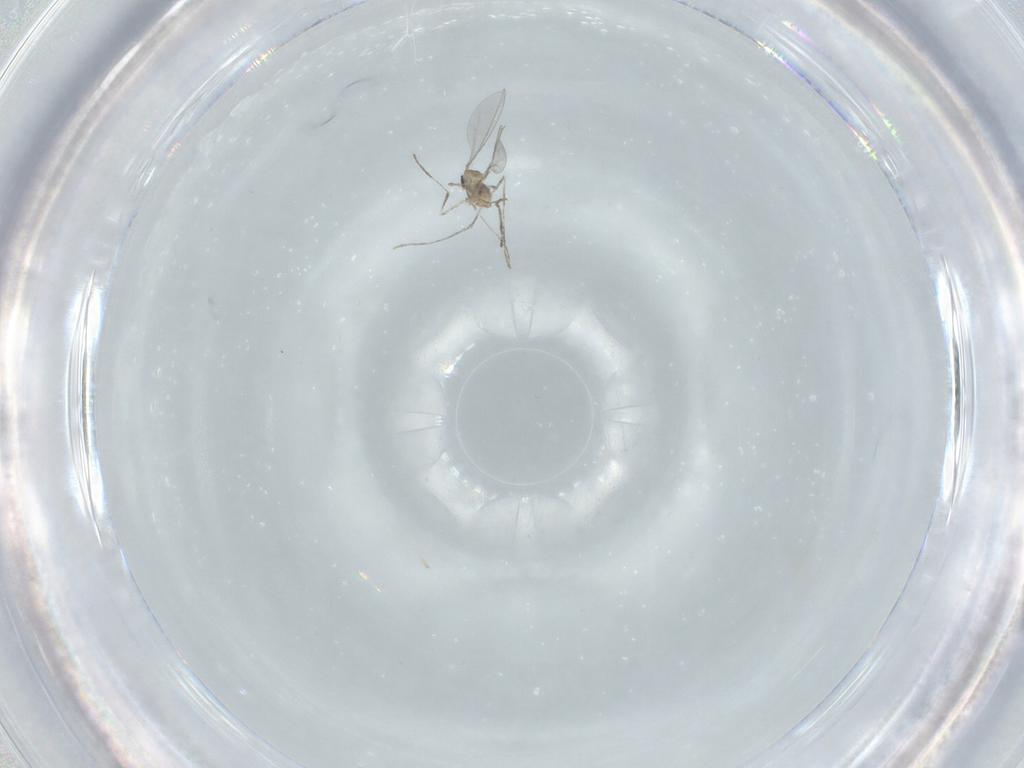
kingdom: Animalia
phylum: Arthropoda
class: Insecta
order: Diptera
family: Cecidomyiidae
